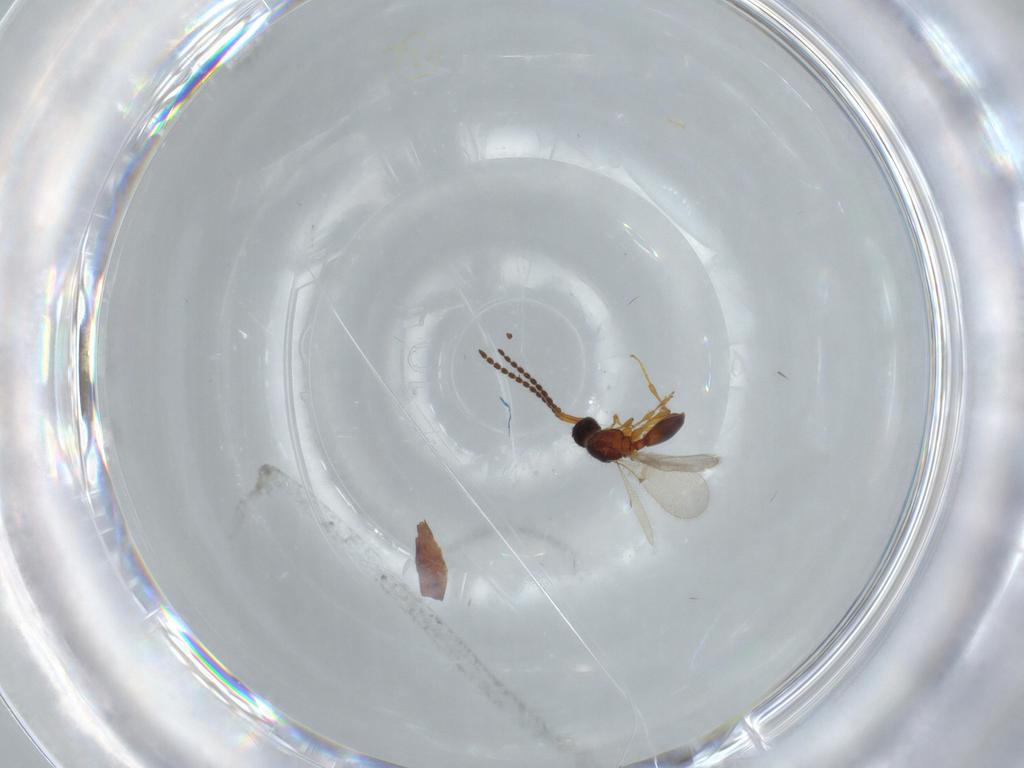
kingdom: Animalia
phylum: Arthropoda
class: Insecta
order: Hymenoptera
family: Diapriidae
